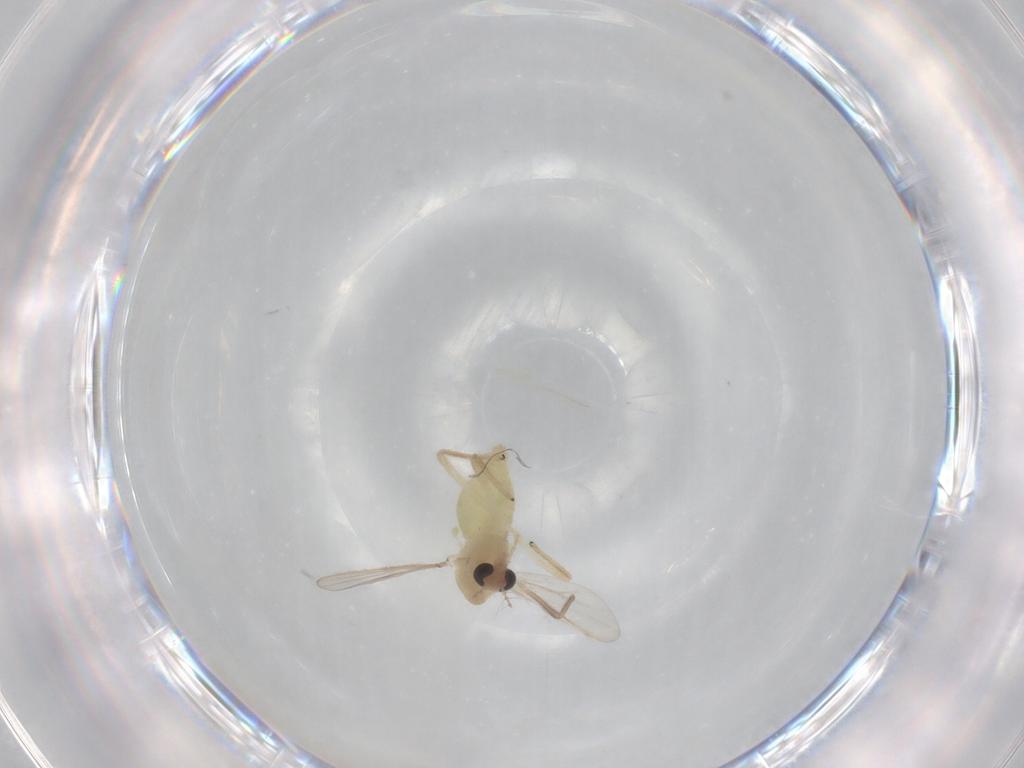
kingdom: Animalia
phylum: Arthropoda
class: Insecta
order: Diptera
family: Chironomidae
